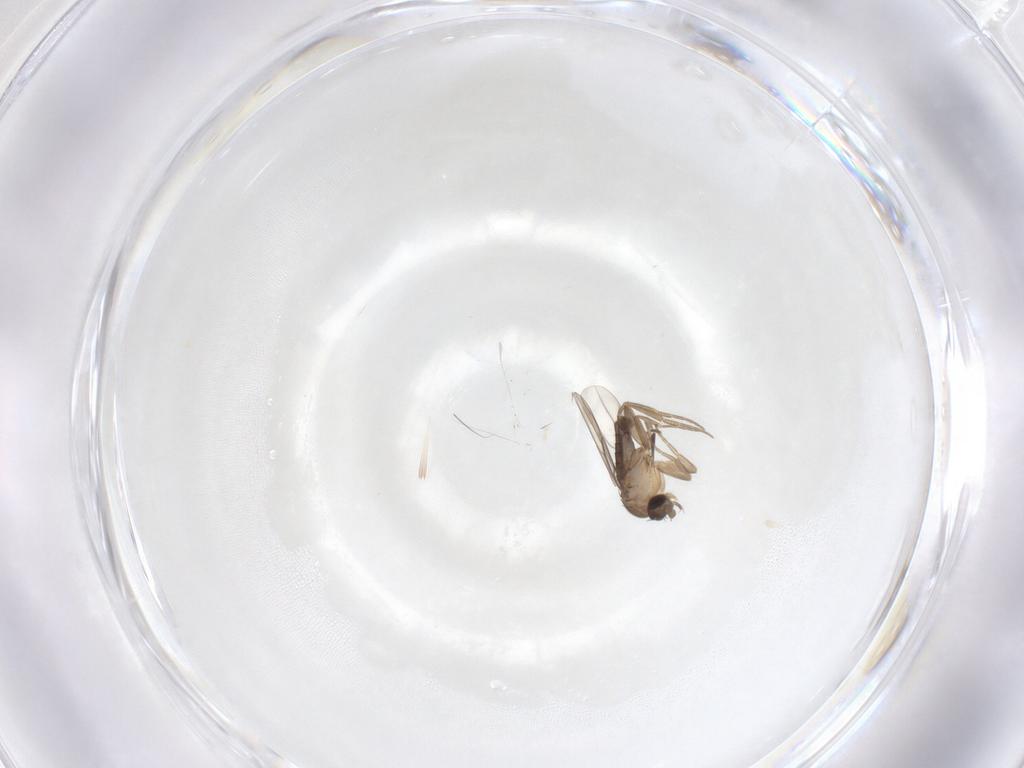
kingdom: Animalia
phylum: Arthropoda
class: Insecta
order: Diptera
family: Phoridae
